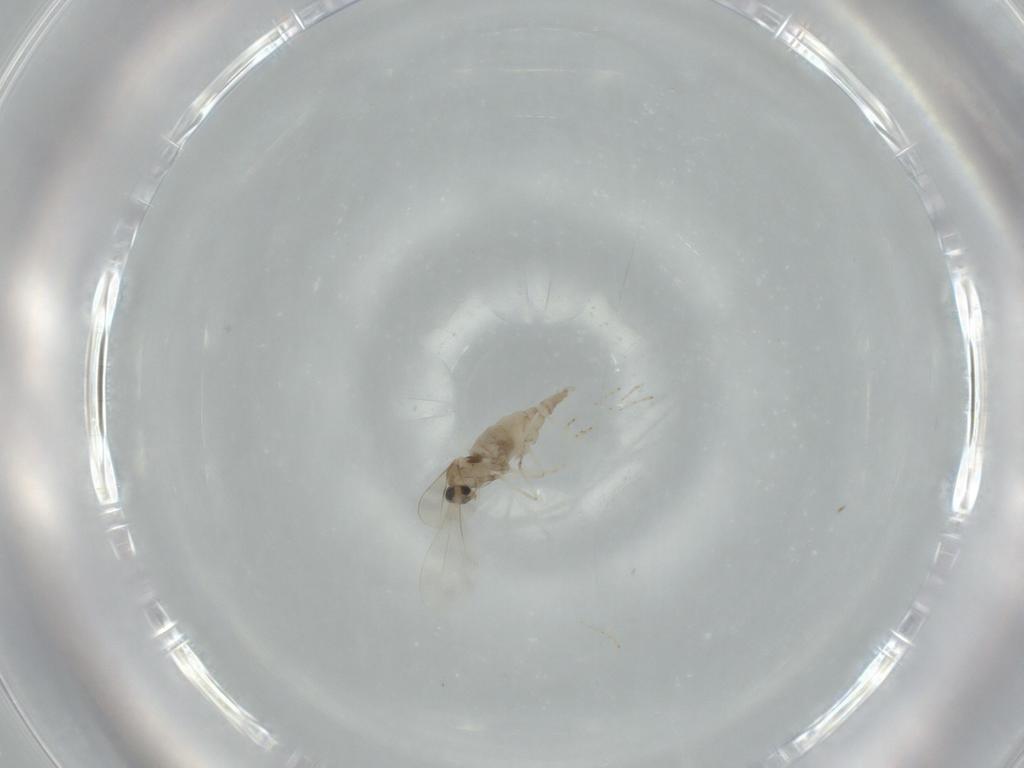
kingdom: Animalia
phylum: Arthropoda
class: Insecta
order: Diptera
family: Cecidomyiidae
